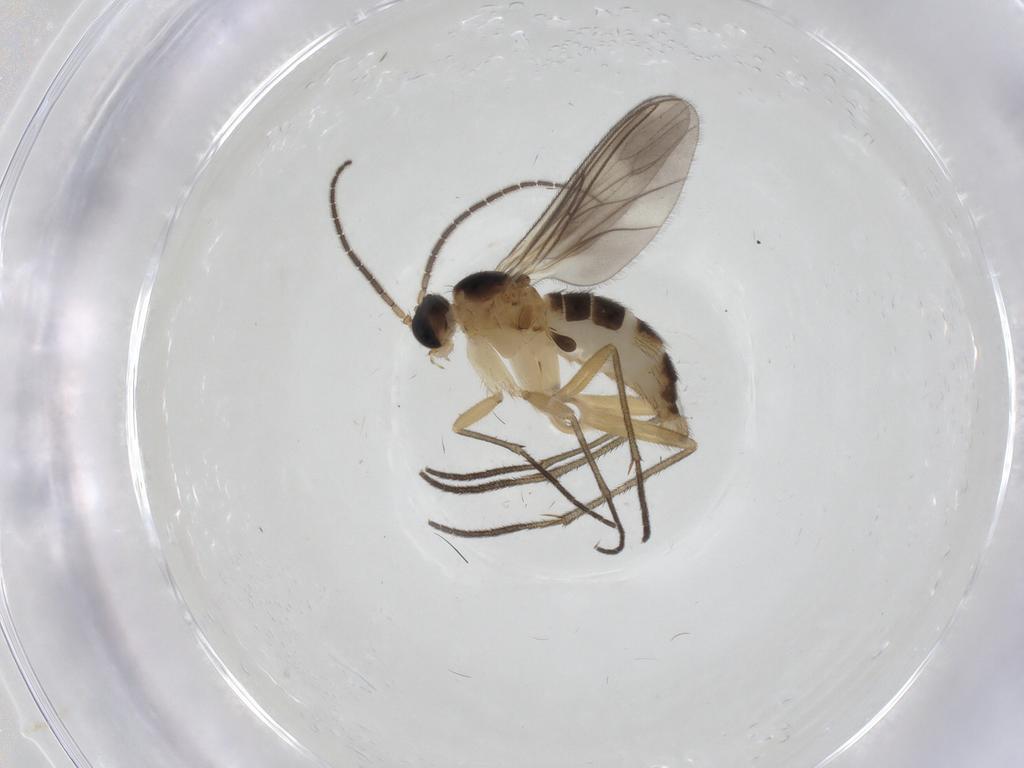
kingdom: Animalia
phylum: Arthropoda
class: Insecta
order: Diptera
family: Sciaridae
